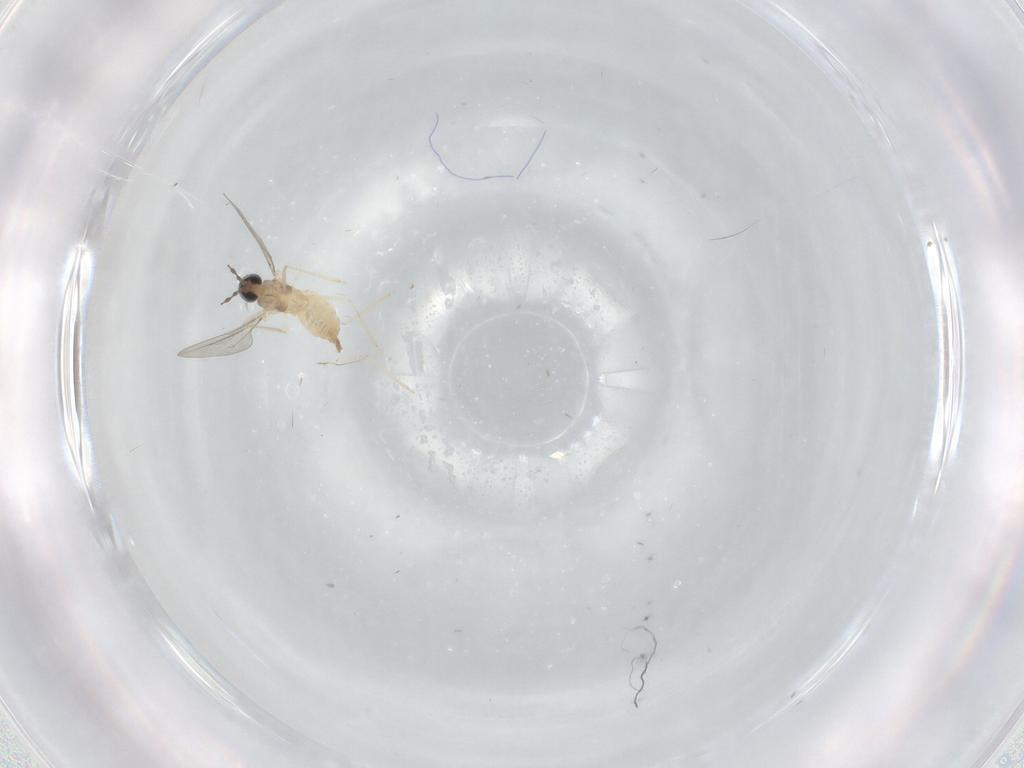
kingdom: Animalia
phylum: Arthropoda
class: Insecta
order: Diptera
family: Cecidomyiidae
